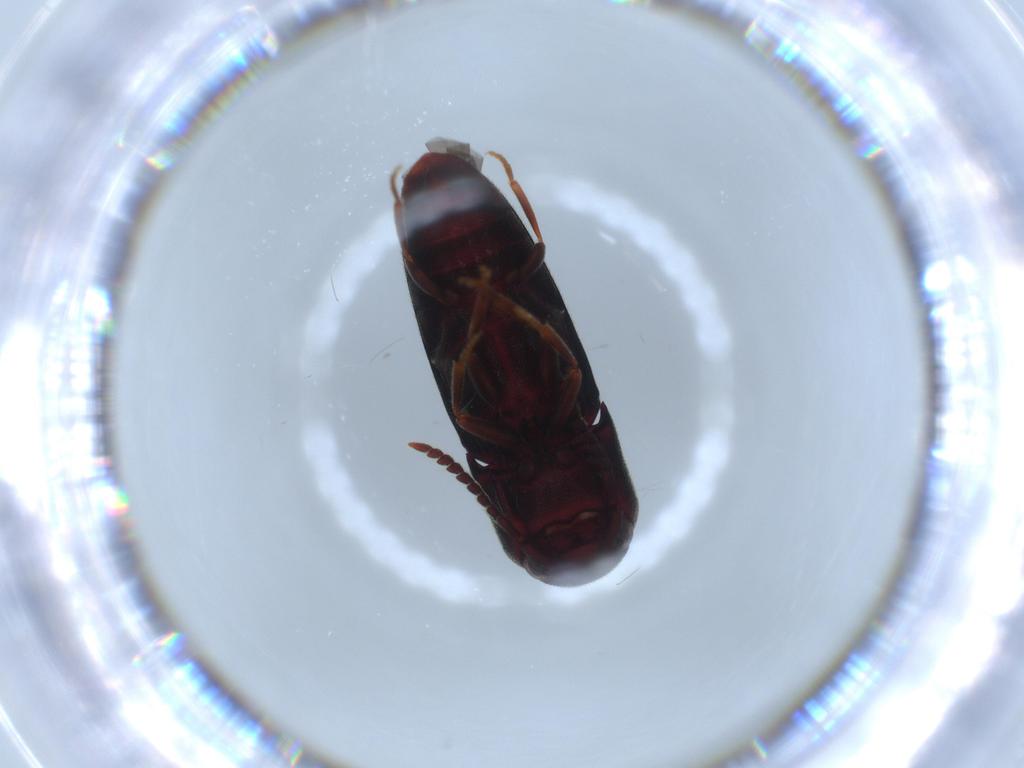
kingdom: Animalia
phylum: Arthropoda
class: Insecta
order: Coleoptera
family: Eucnemidae
